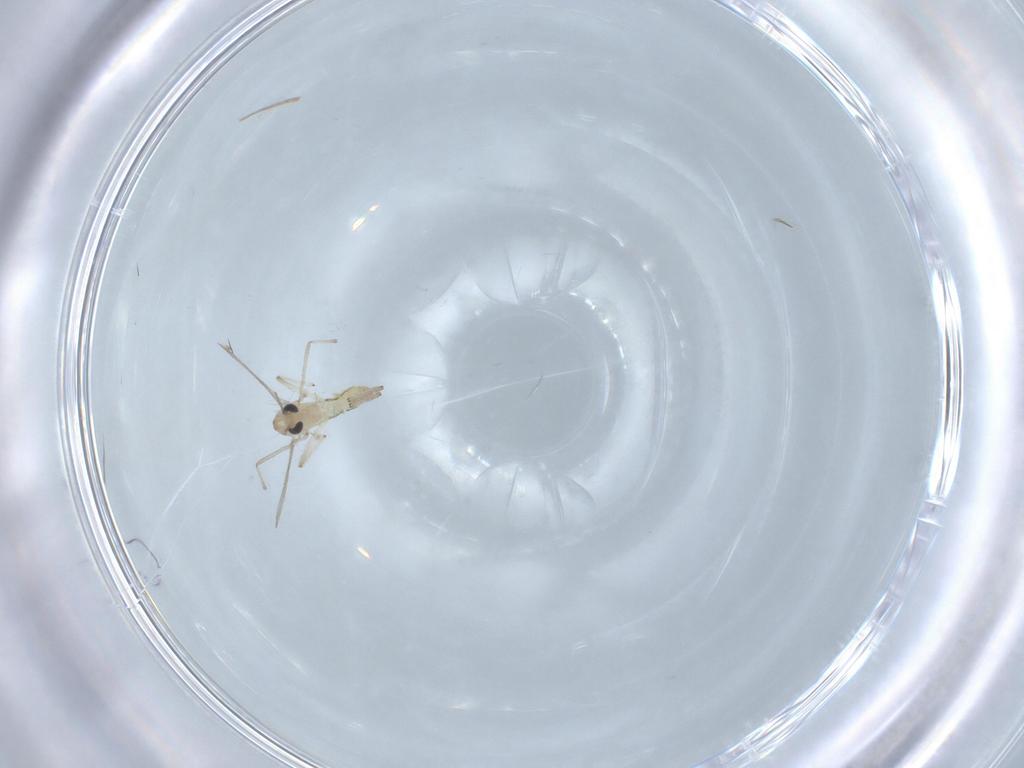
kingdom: Animalia
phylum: Arthropoda
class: Insecta
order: Diptera
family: Chironomidae
